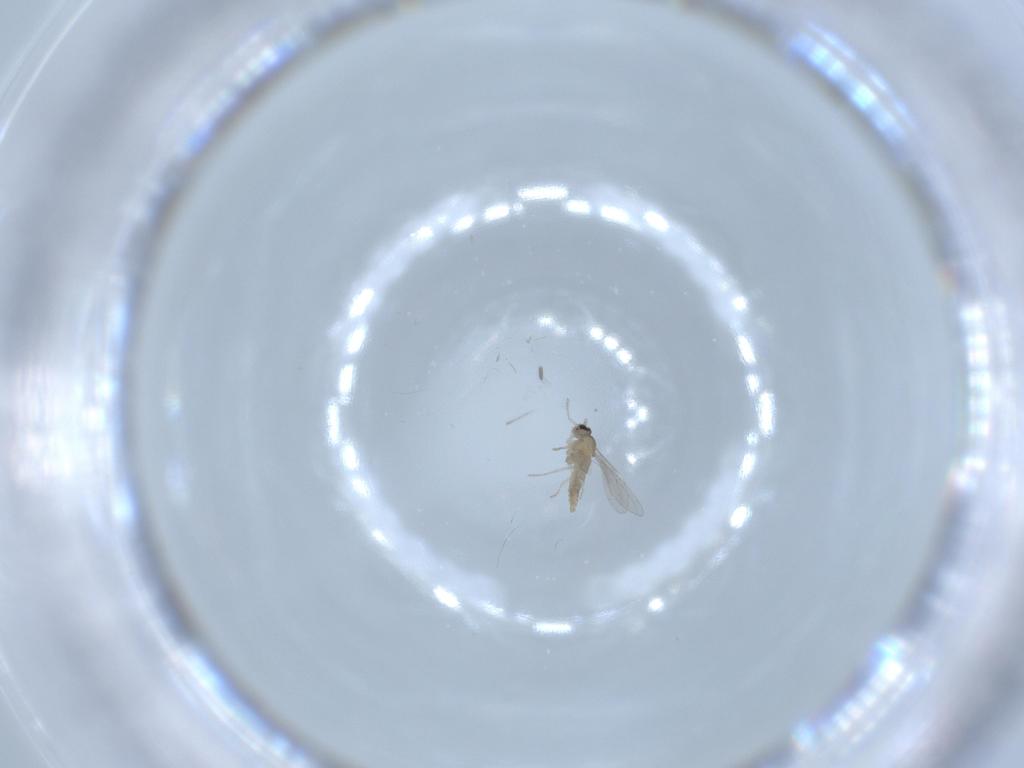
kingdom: Animalia
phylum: Arthropoda
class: Insecta
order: Diptera
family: Cecidomyiidae
